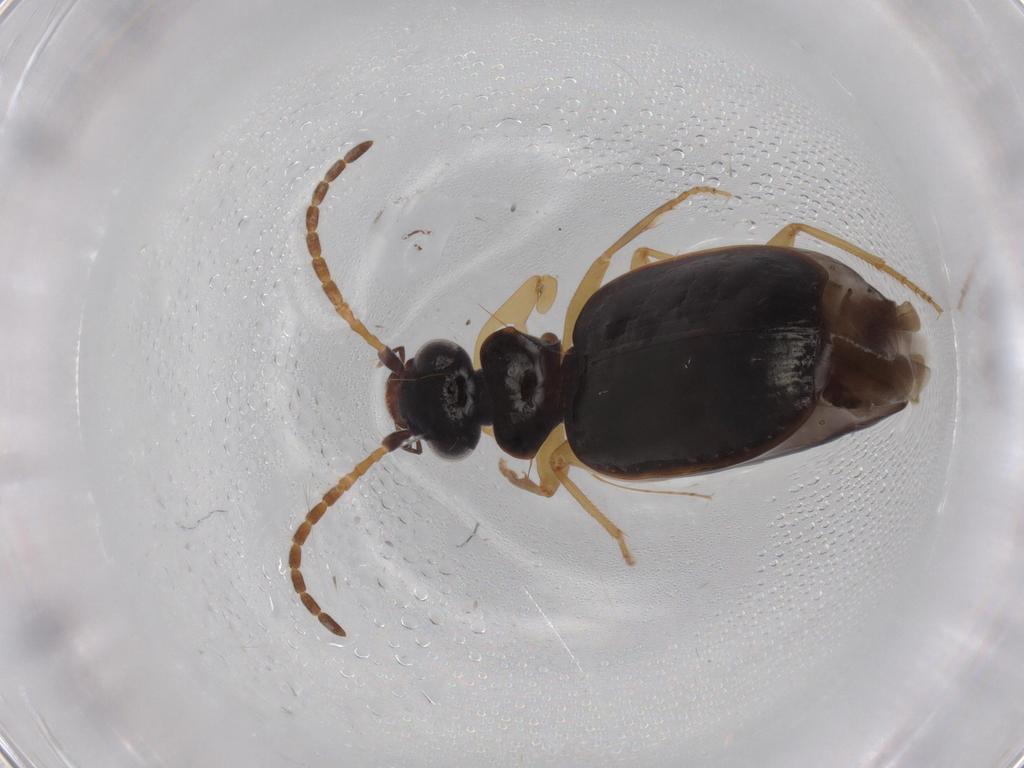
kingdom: Animalia
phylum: Arthropoda
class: Insecta
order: Coleoptera
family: Carabidae
